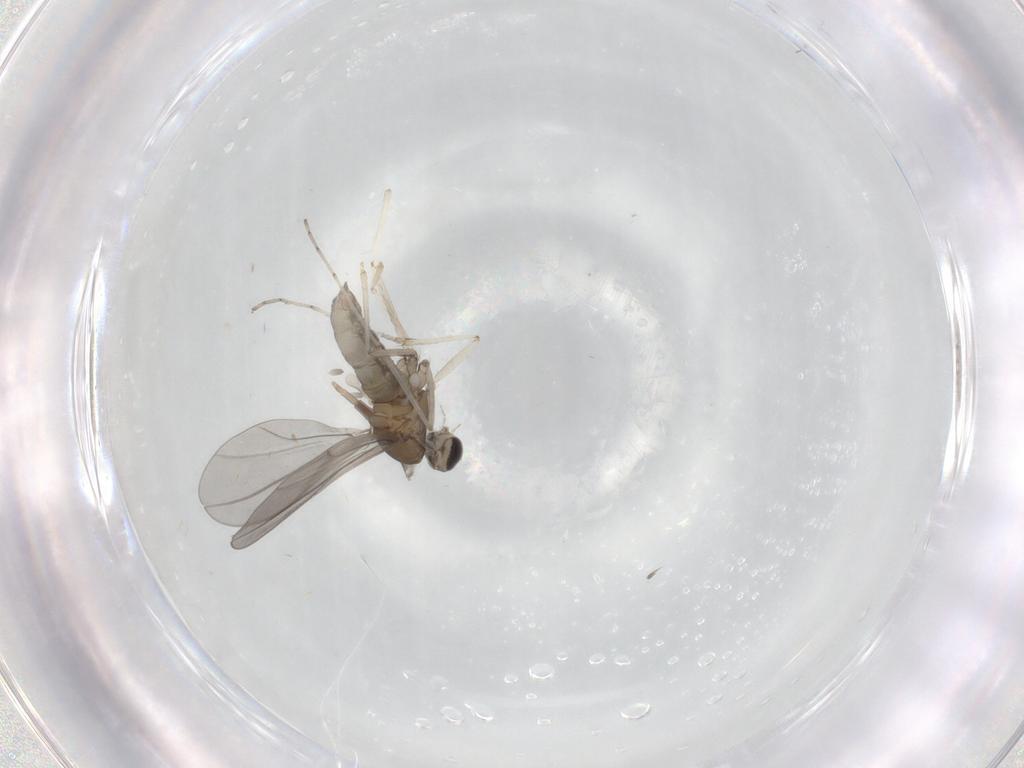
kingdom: Animalia
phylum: Arthropoda
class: Insecta
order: Diptera
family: Cecidomyiidae
